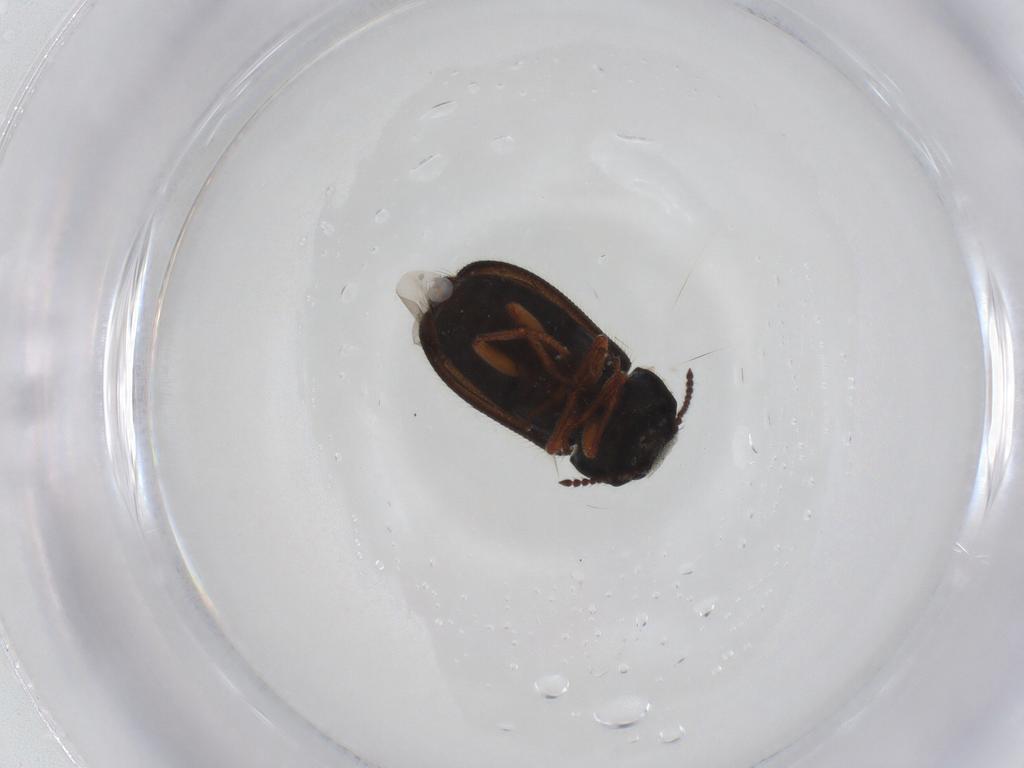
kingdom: Animalia
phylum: Arthropoda
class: Insecta
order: Coleoptera
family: Melyridae
